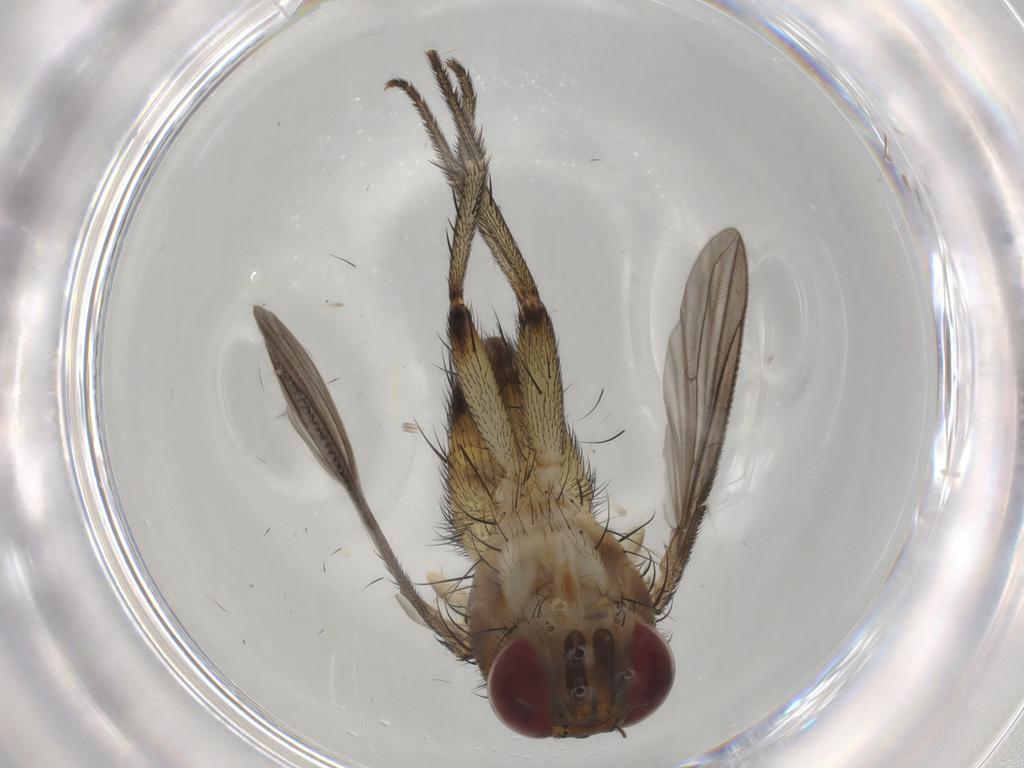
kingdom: Animalia
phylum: Arthropoda
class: Insecta
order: Diptera
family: Tachinidae
